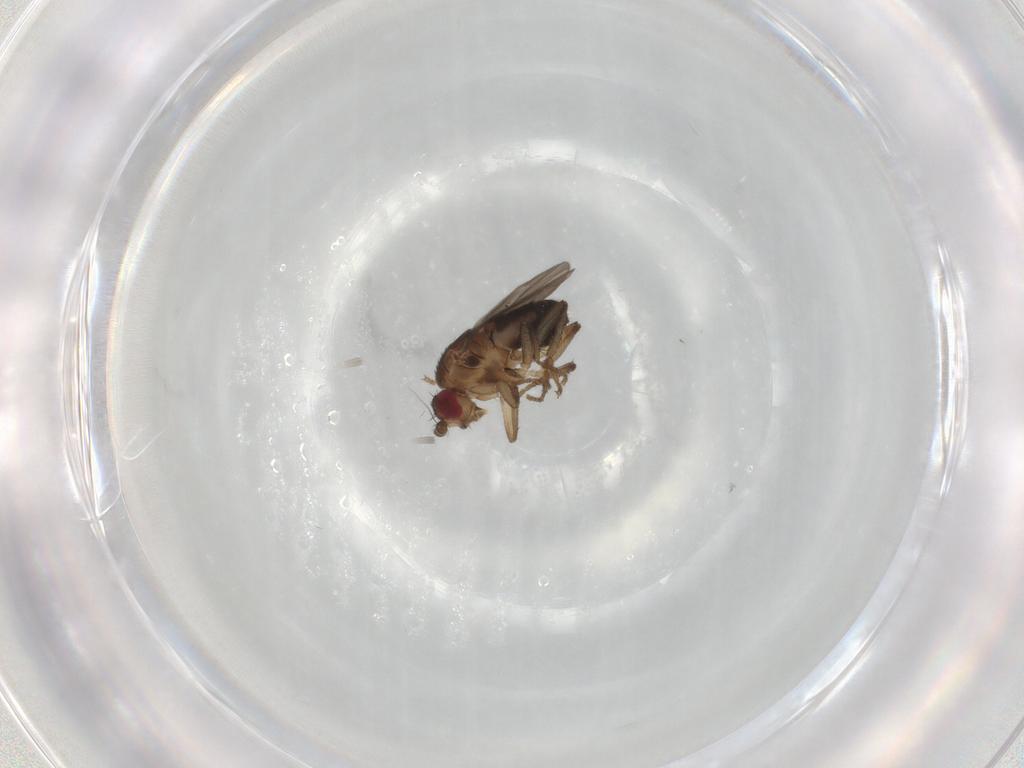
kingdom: Animalia
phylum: Arthropoda
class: Insecta
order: Diptera
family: Sphaeroceridae
